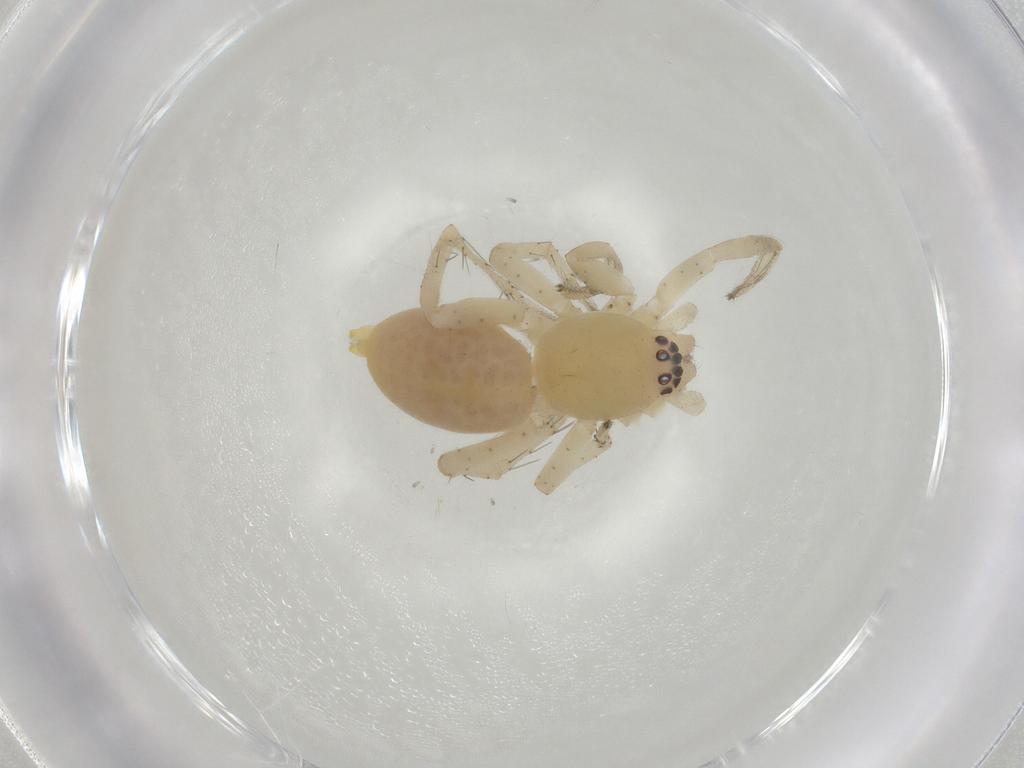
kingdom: Animalia
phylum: Arthropoda
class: Arachnida
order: Araneae
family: Clubionidae
